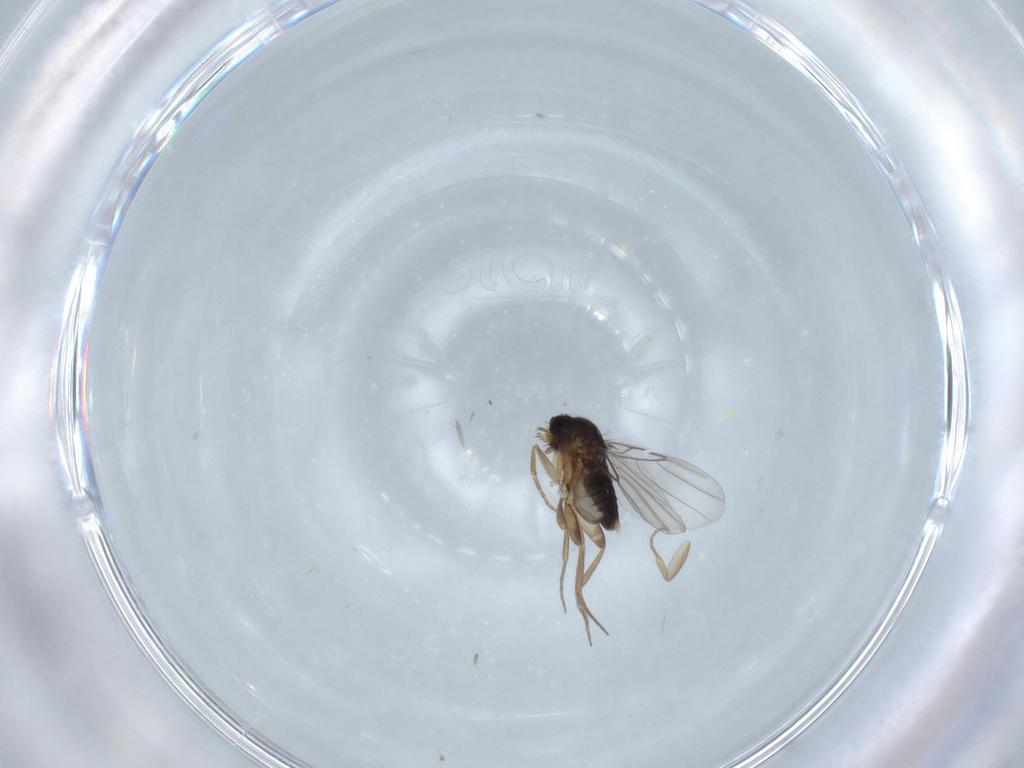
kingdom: Animalia
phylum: Arthropoda
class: Insecta
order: Diptera
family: Phoridae
